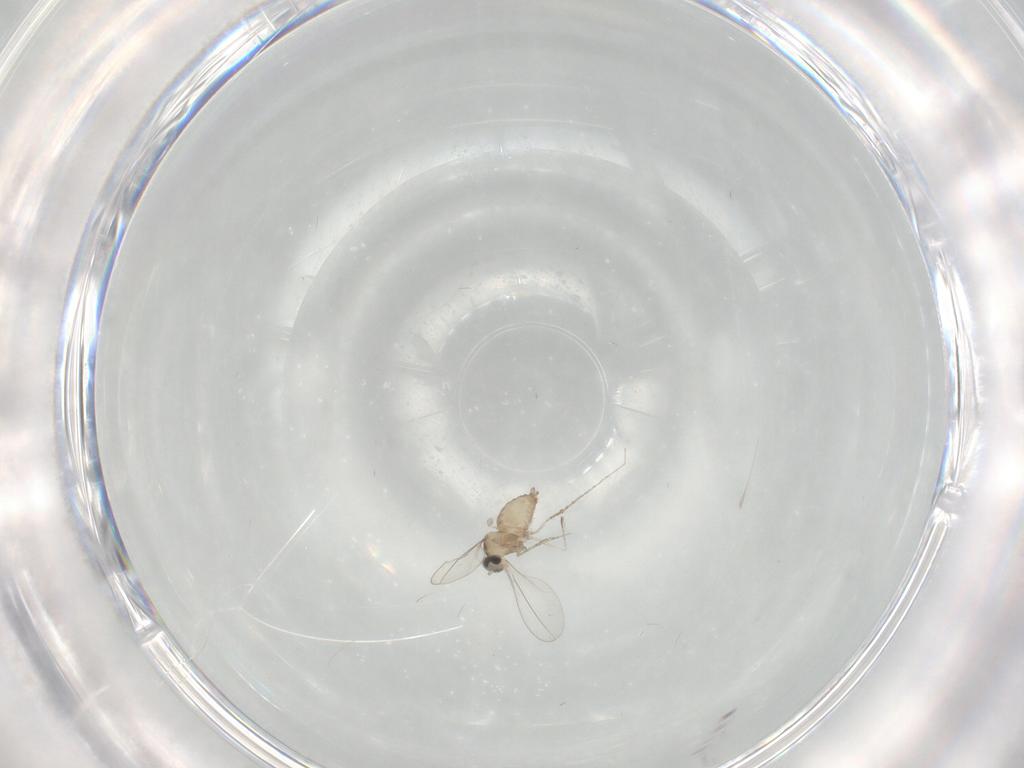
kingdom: Animalia
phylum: Arthropoda
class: Insecta
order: Diptera
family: Cecidomyiidae
